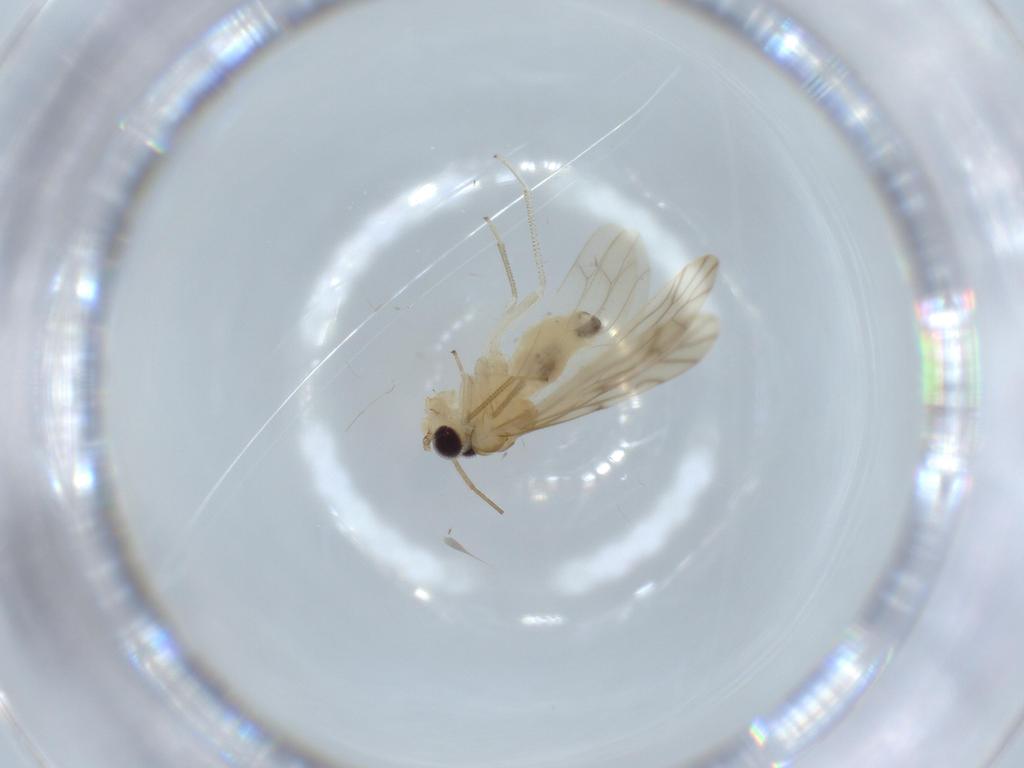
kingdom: Animalia
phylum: Arthropoda
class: Insecta
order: Psocodea
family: Caeciliusidae
